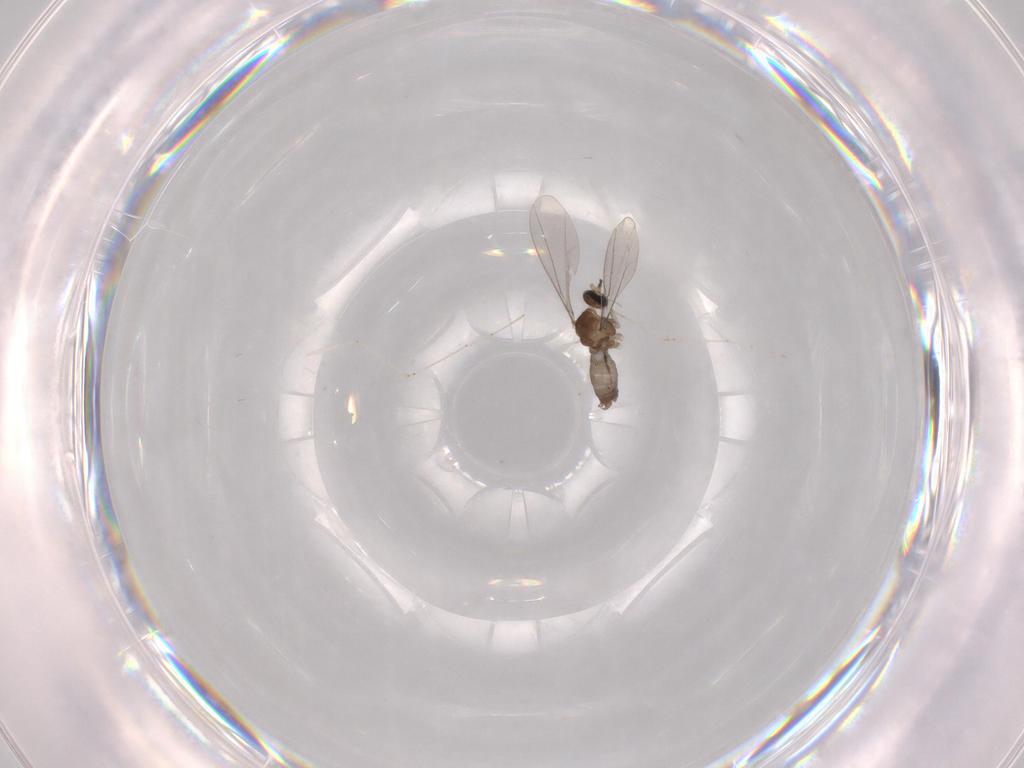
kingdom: Animalia
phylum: Arthropoda
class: Insecta
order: Diptera
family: Cecidomyiidae
